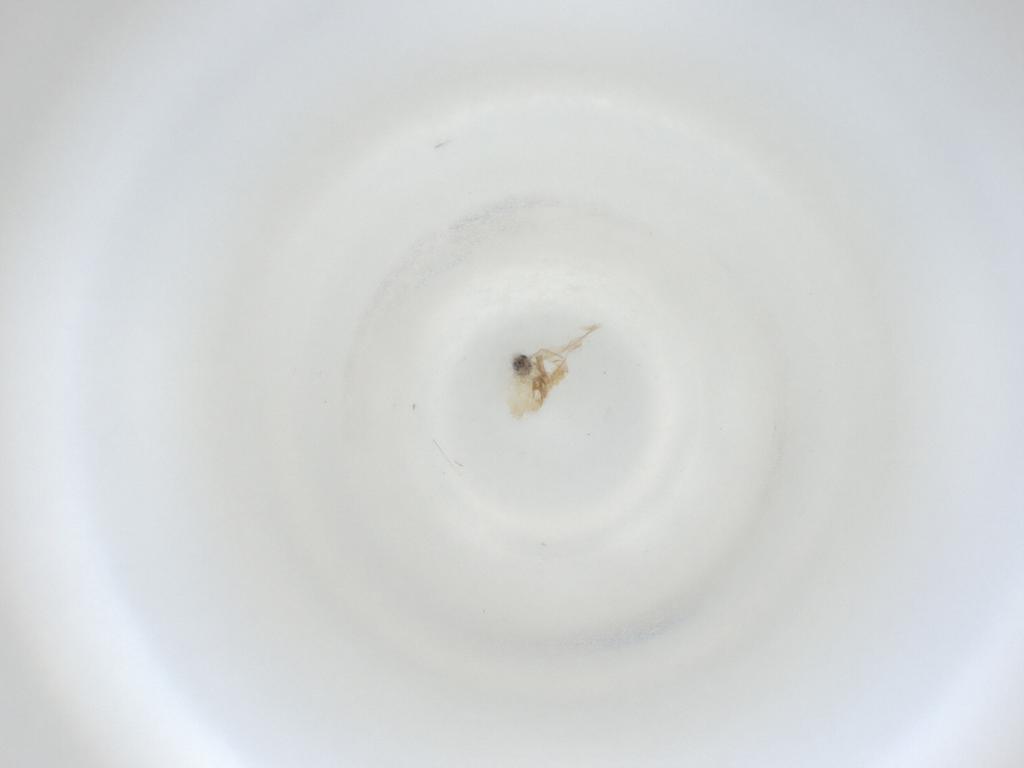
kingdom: Animalia
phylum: Arthropoda
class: Insecta
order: Diptera
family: Cecidomyiidae
